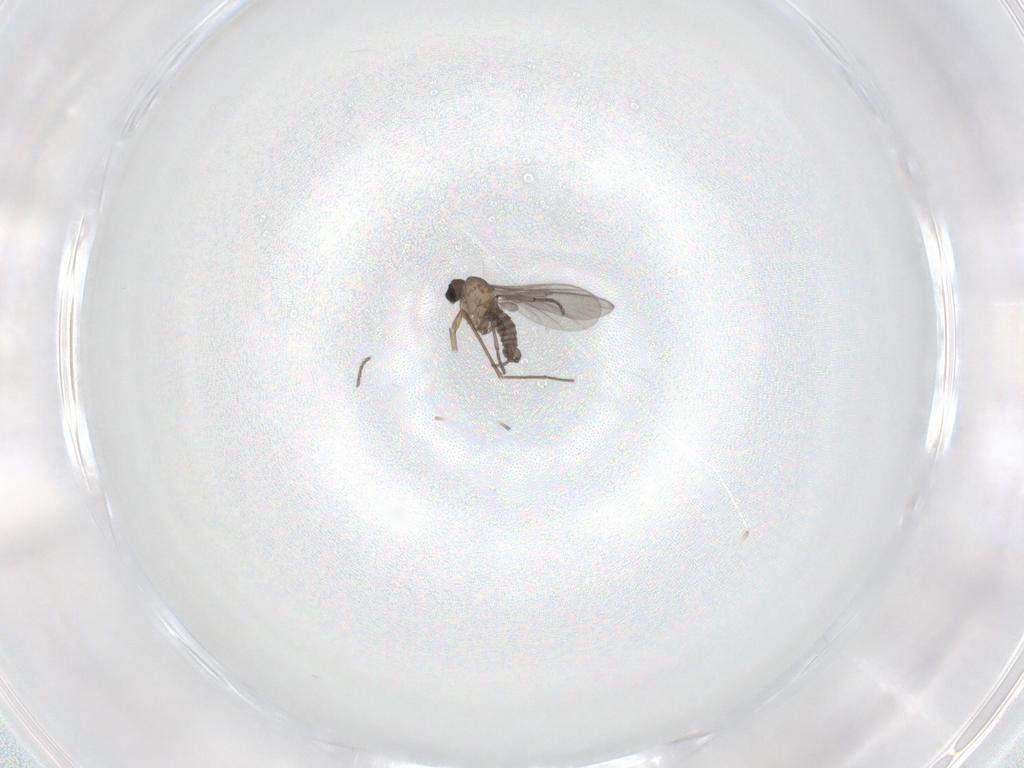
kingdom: Animalia
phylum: Arthropoda
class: Insecta
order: Diptera
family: Sciaridae
